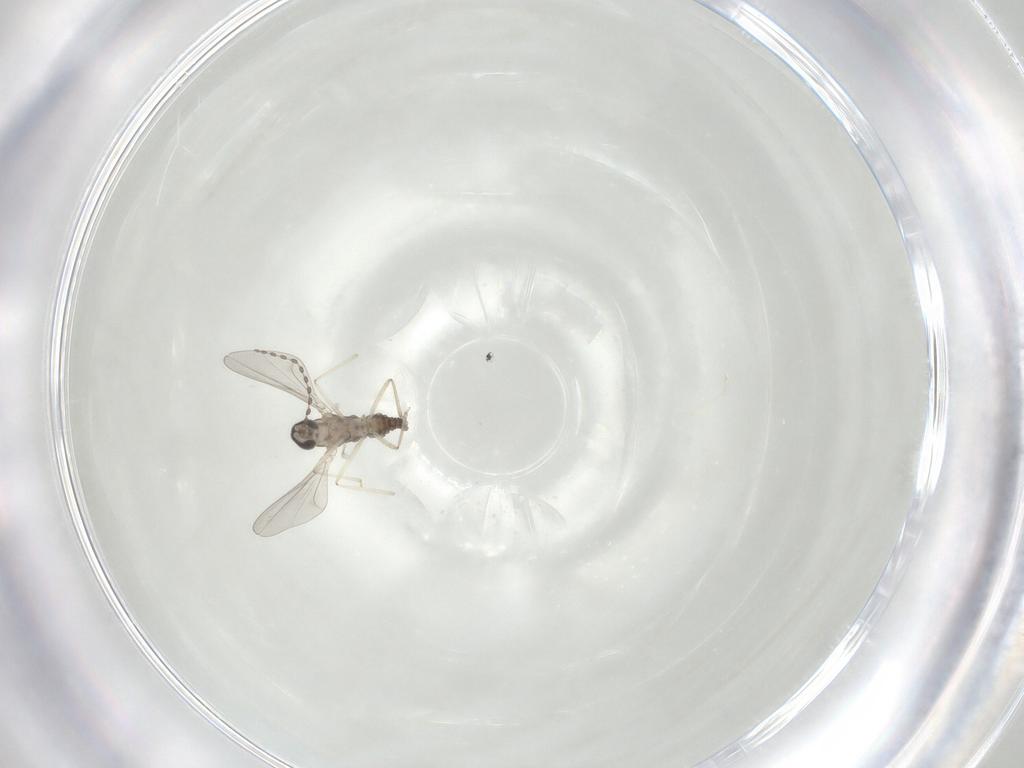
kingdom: Animalia
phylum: Arthropoda
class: Insecta
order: Diptera
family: Cecidomyiidae
